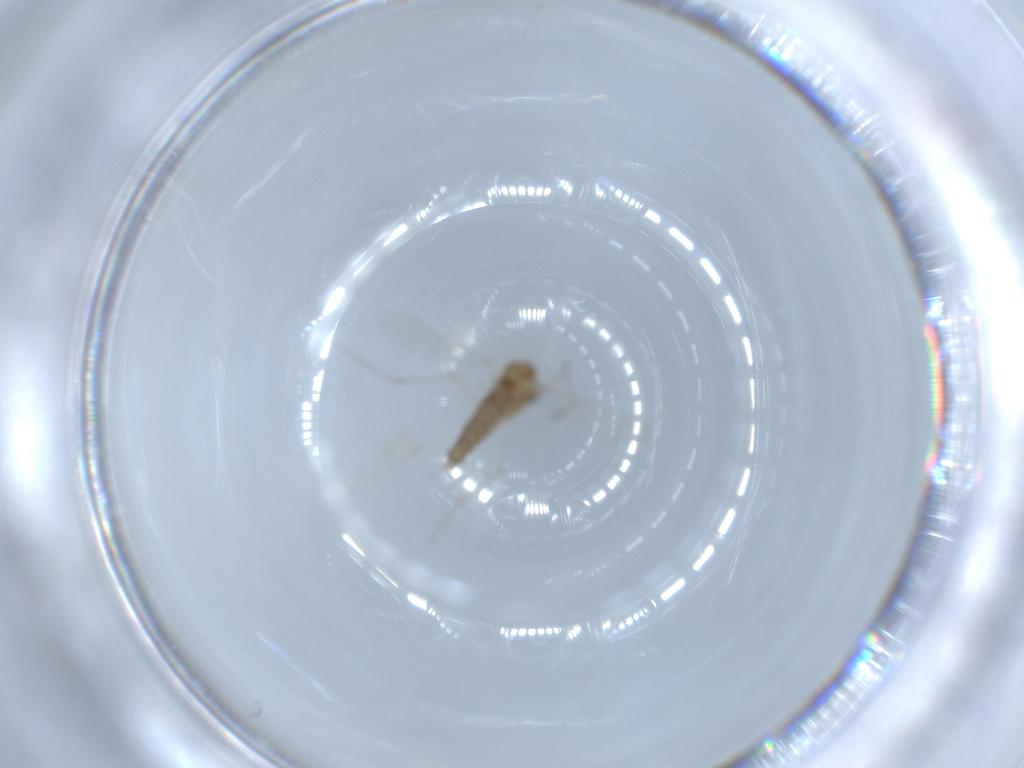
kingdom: Animalia
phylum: Arthropoda
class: Insecta
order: Diptera
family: Chironomidae
